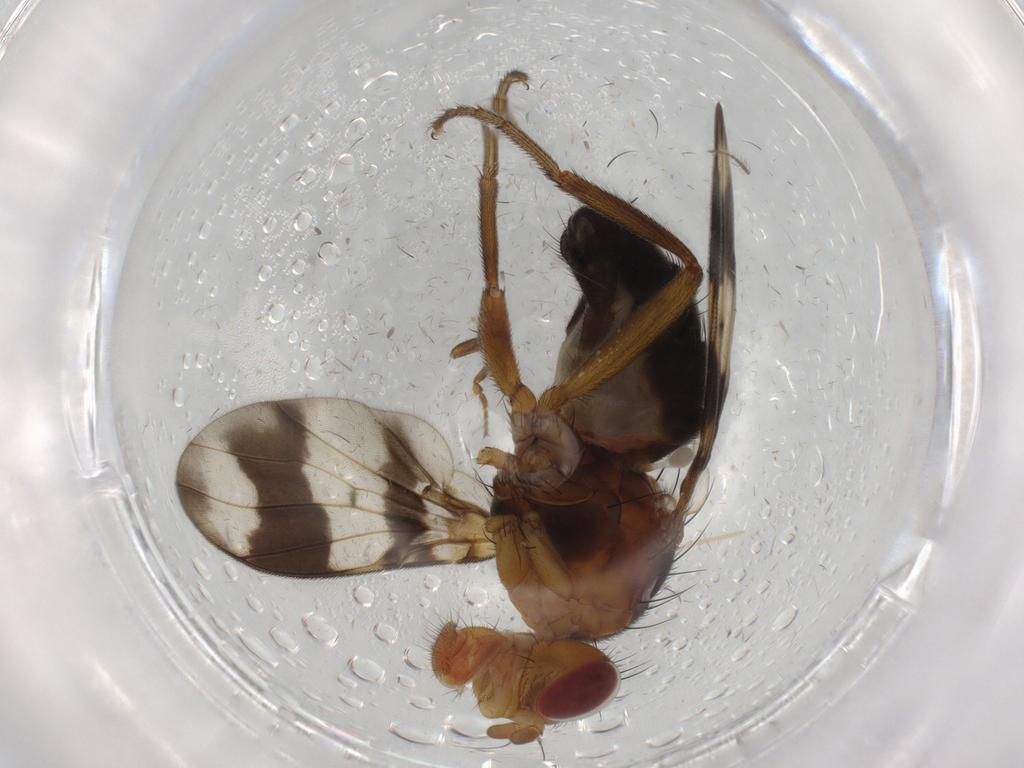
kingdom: Animalia
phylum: Arthropoda
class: Insecta
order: Diptera
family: Richardiidae
